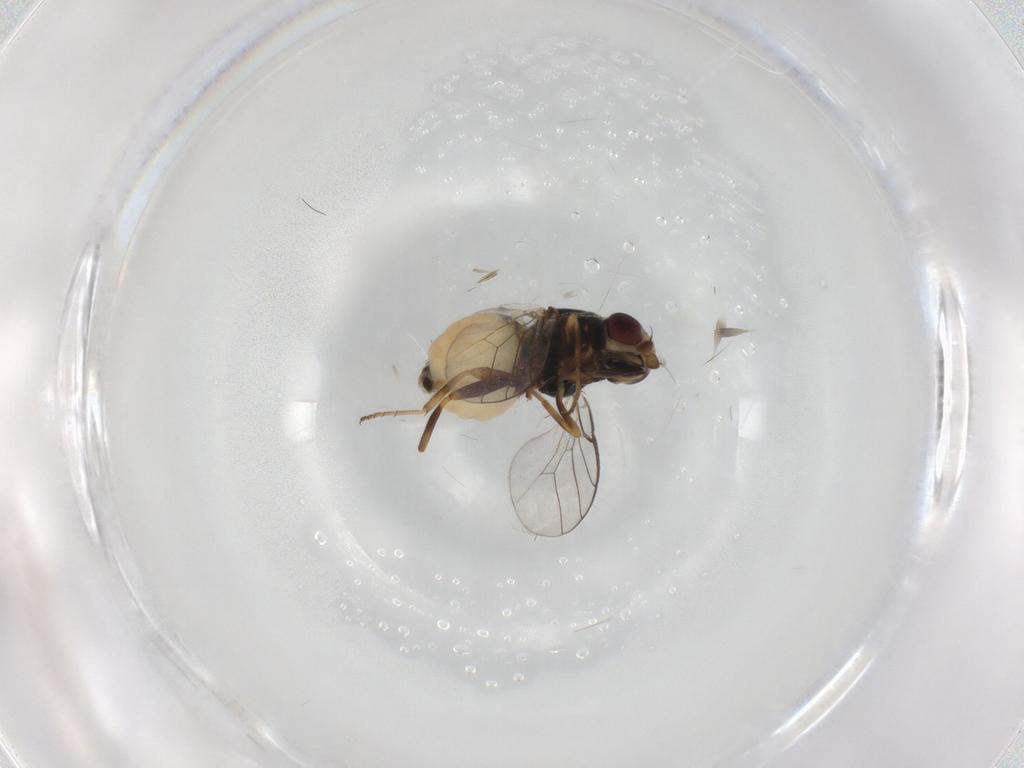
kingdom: Animalia
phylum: Arthropoda
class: Insecta
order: Diptera
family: Chloropidae
